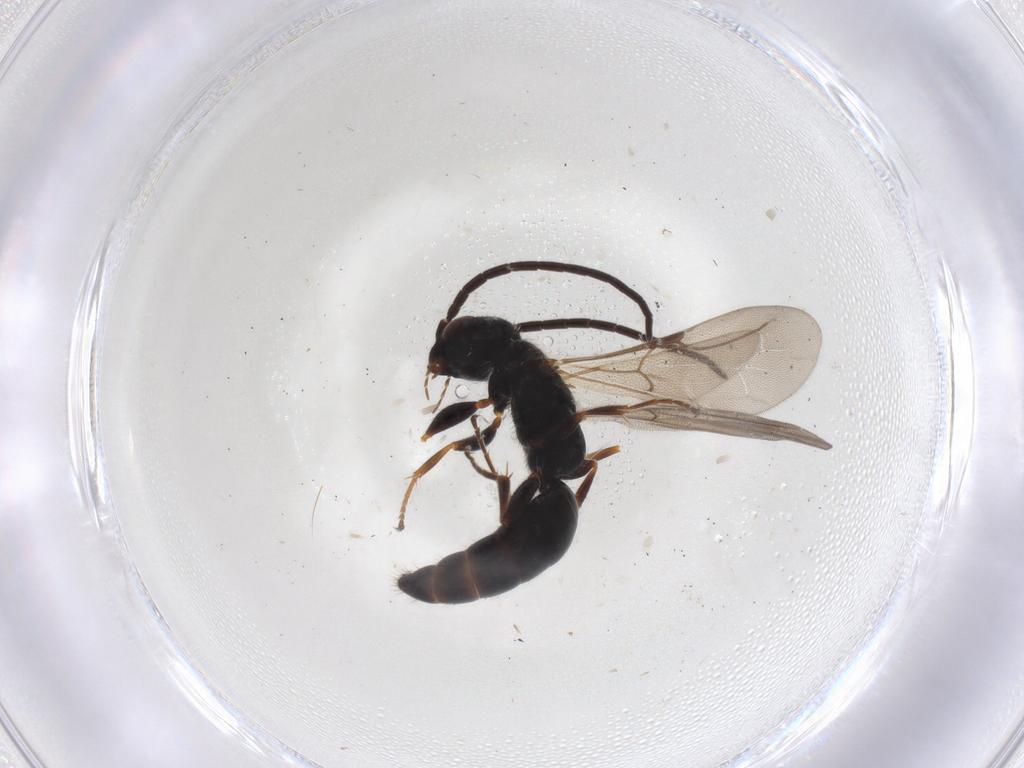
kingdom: Animalia
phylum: Arthropoda
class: Insecta
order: Hymenoptera
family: Bethylidae
